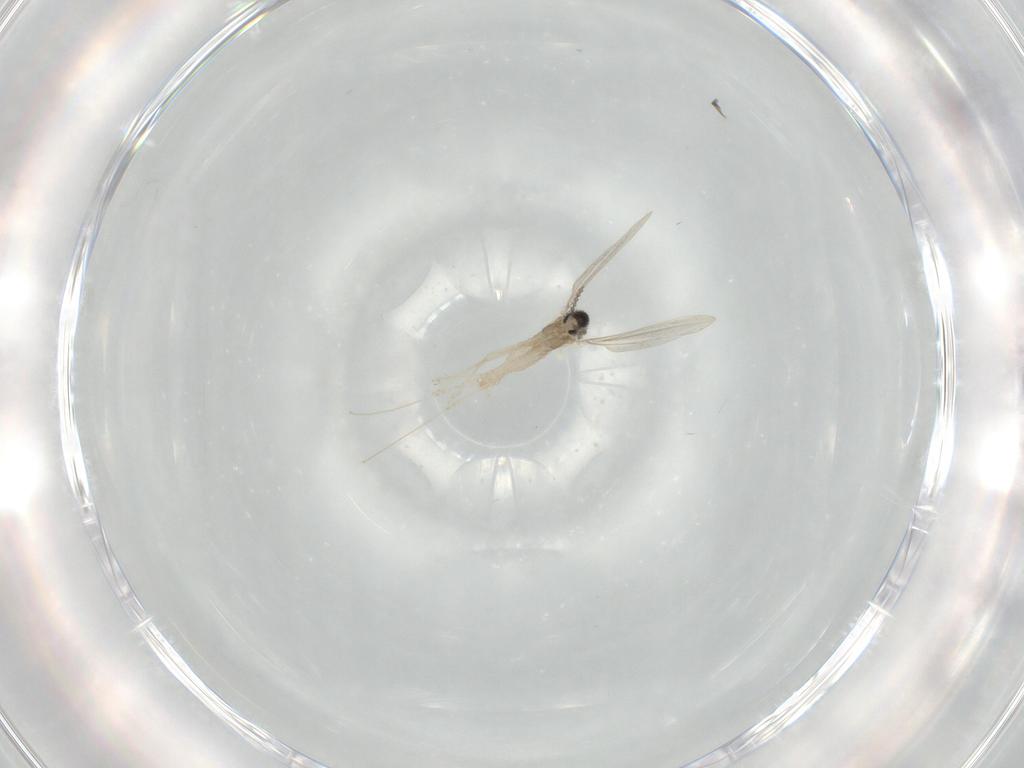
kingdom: Animalia
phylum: Arthropoda
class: Insecta
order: Diptera
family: Cecidomyiidae
